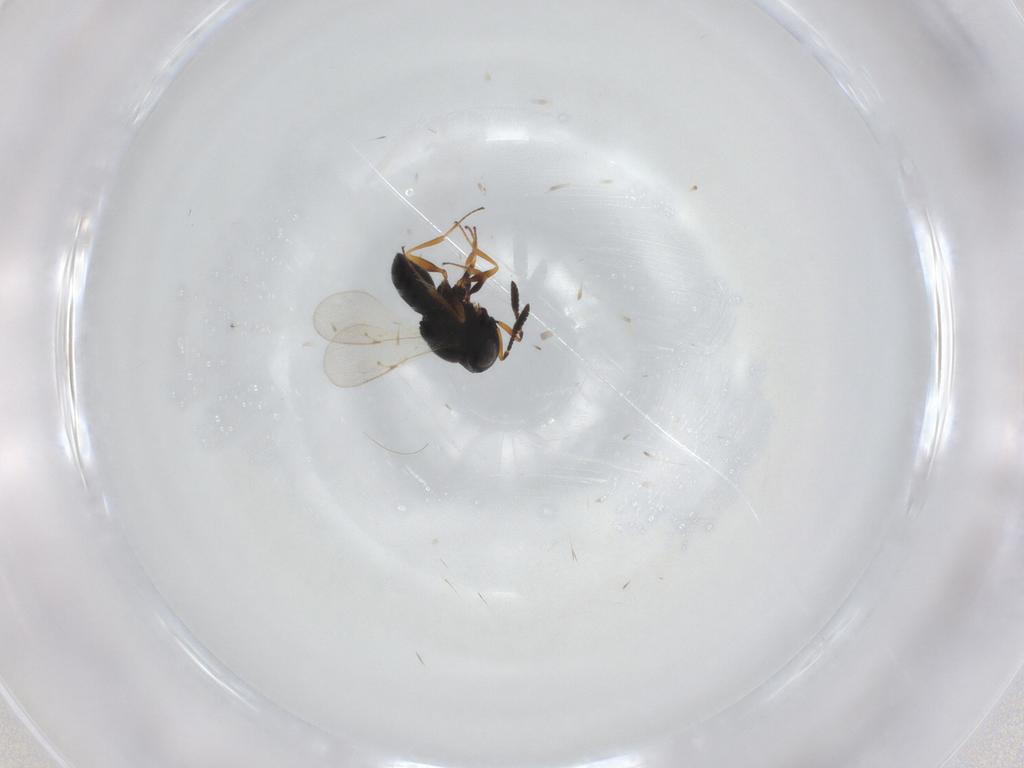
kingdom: Animalia
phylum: Arthropoda
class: Insecta
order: Hymenoptera
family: Scelionidae
